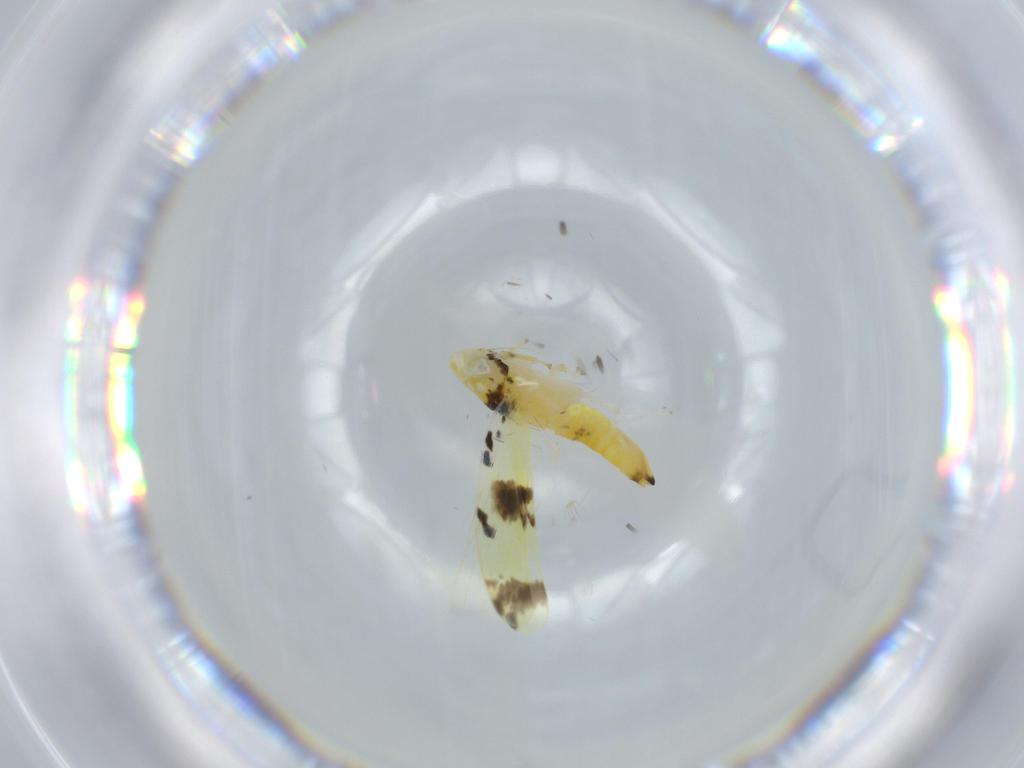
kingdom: Animalia
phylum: Arthropoda
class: Insecta
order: Hemiptera
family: Cicadellidae
